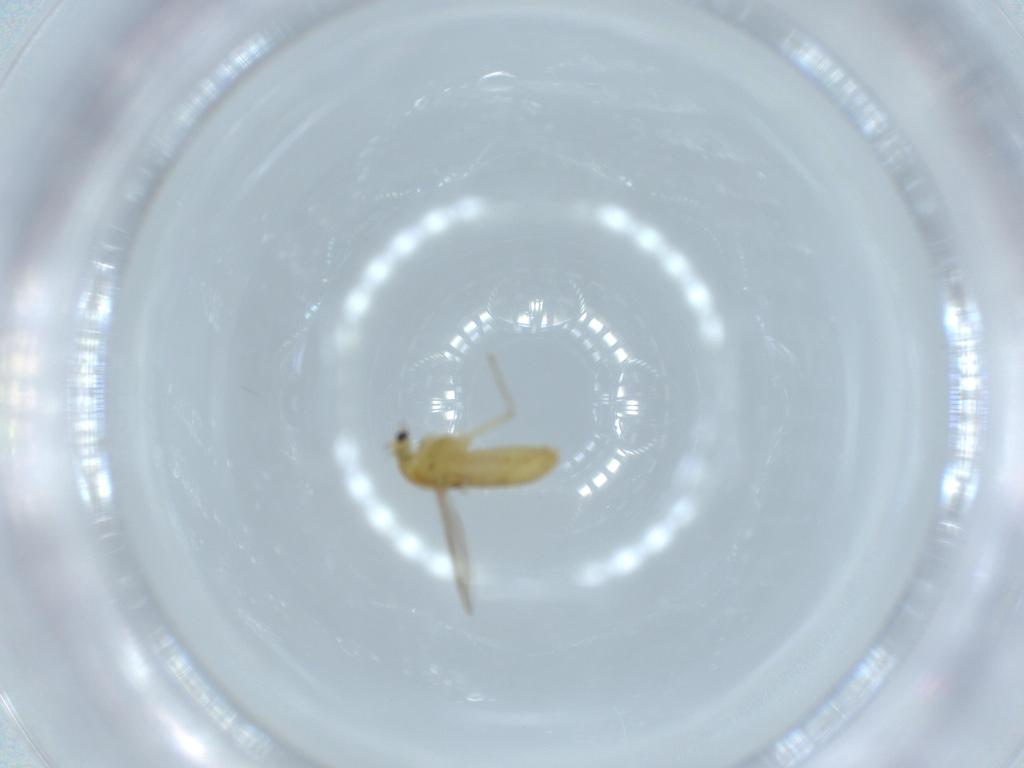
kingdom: Animalia
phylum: Arthropoda
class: Insecta
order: Diptera
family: Chironomidae
